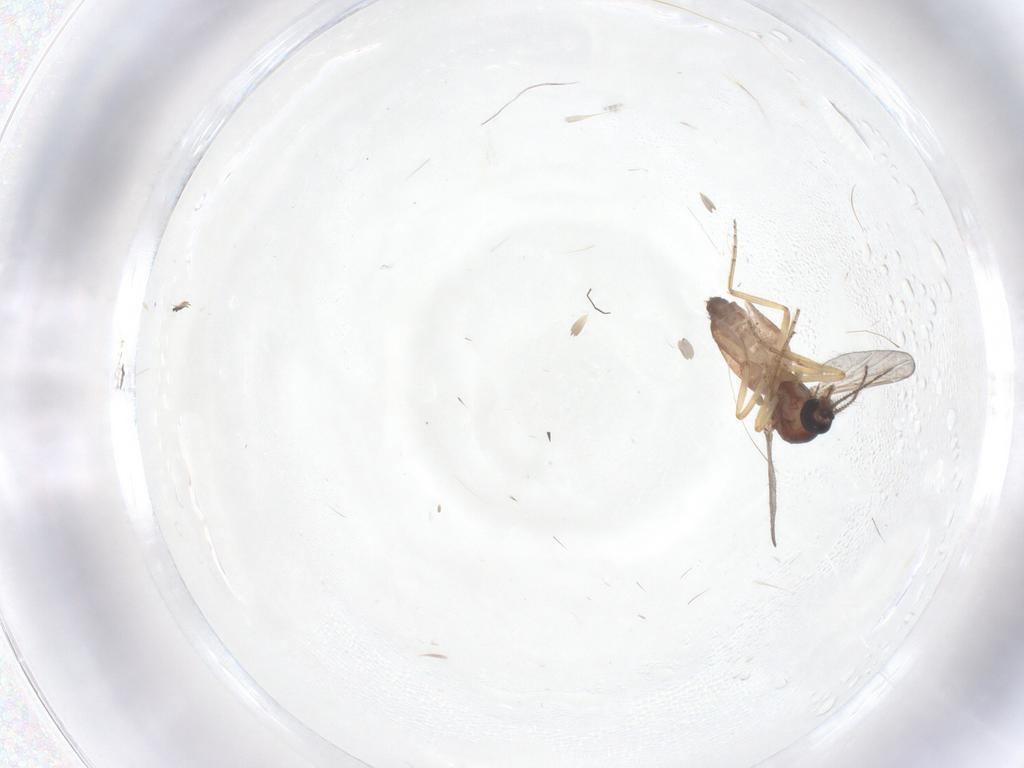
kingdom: Animalia
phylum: Arthropoda
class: Insecta
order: Diptera
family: Ceratopogonidae
